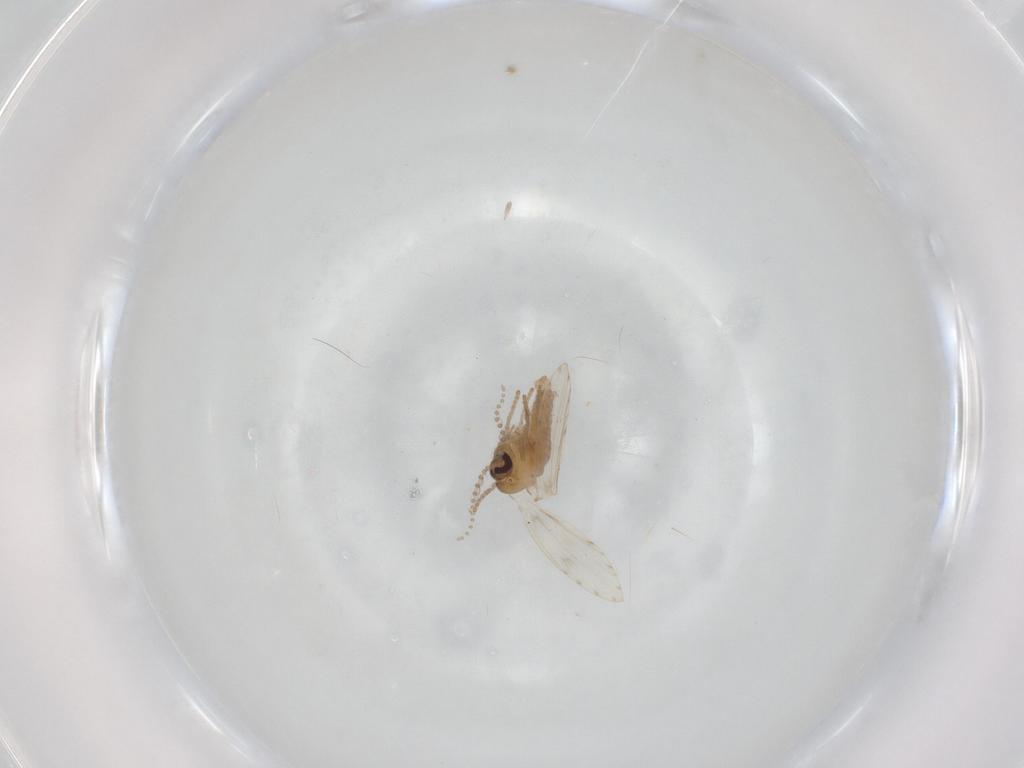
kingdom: Animalia
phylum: Arthropoda
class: Insecta
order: Diptera
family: Psychodidae
